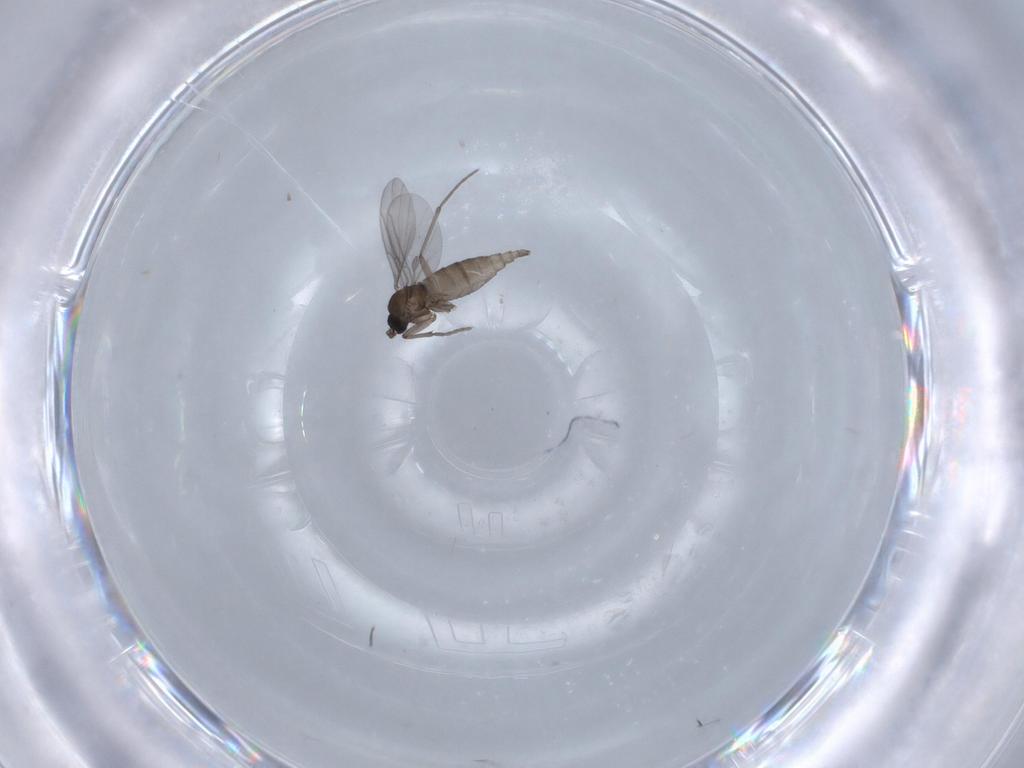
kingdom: Animalia
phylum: Arthropoda
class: Insecta
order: Diptera
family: Sciaridae
